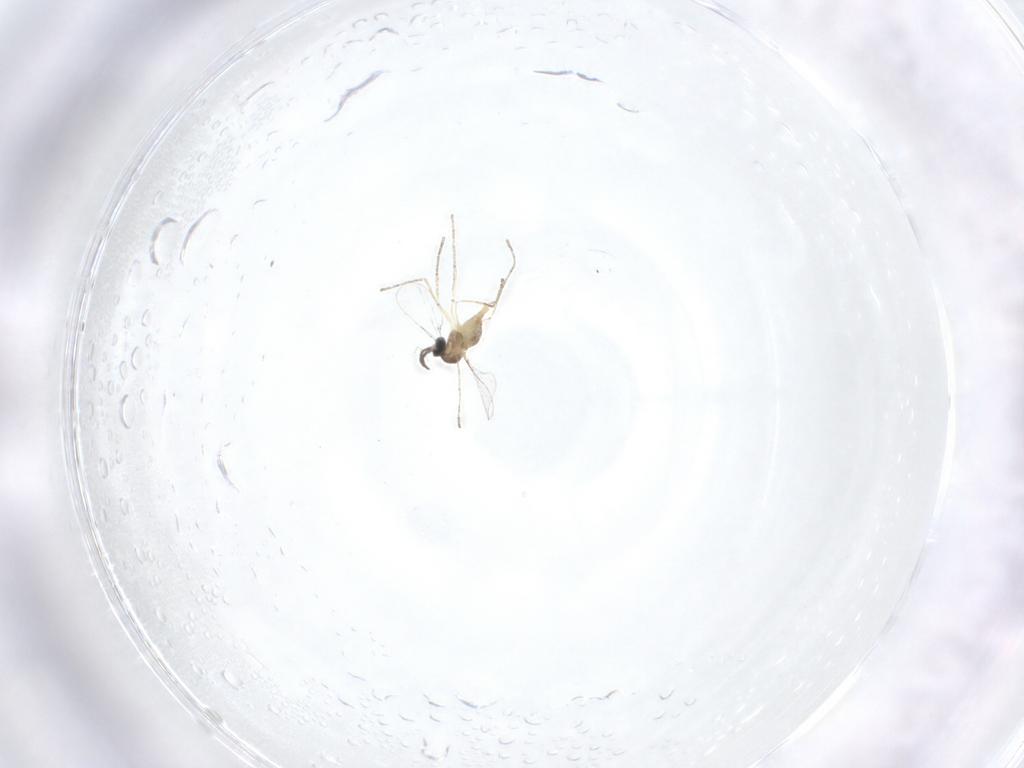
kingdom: Animalia
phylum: Arthropoda
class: Insecta
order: Diptera
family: Cecidomyiidae
